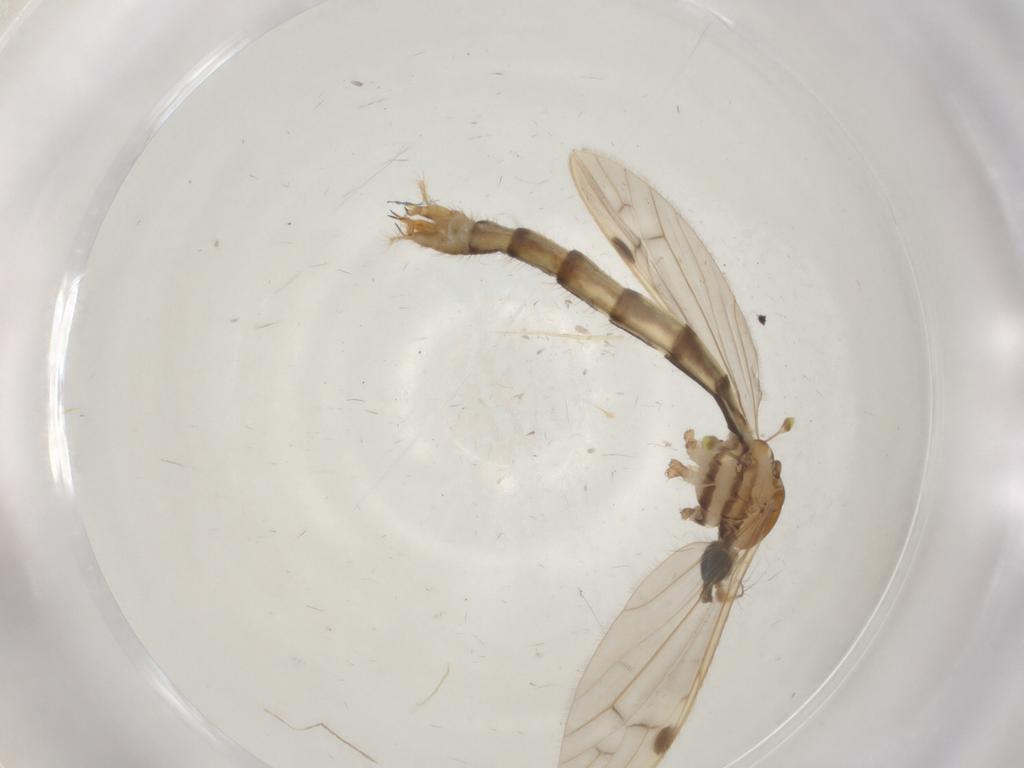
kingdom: Animalia
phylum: Arthropoda
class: Insecta
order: Diptera
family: Limoniidae
